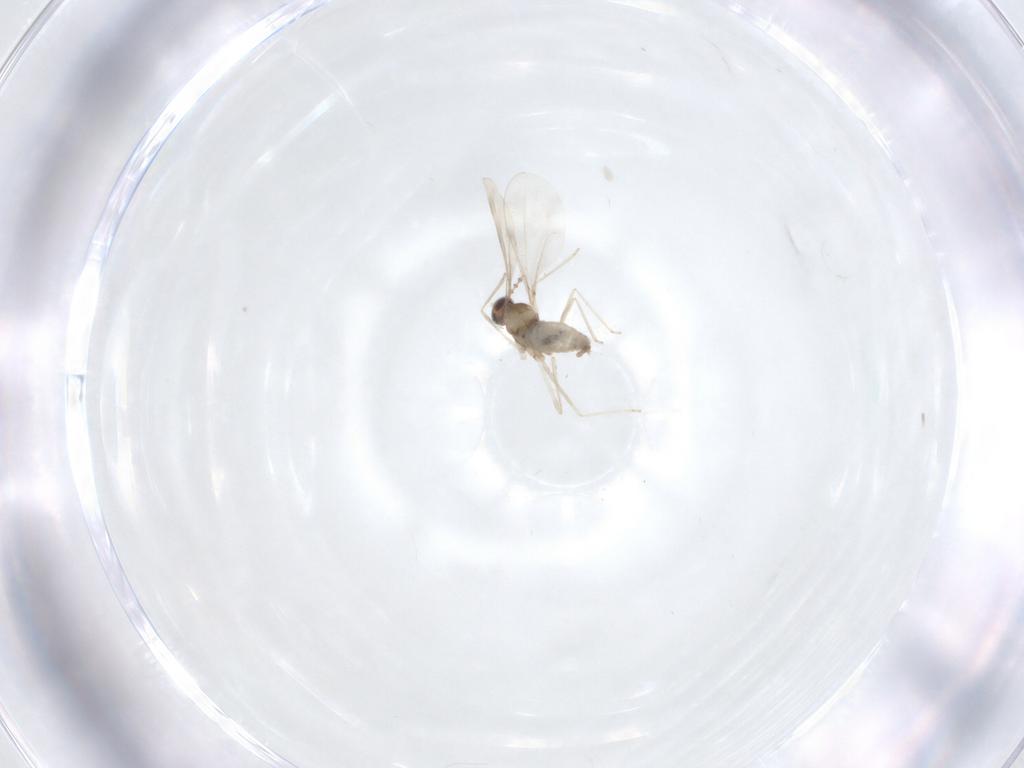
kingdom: Animalia
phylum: Arthropoda
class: Insecta
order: Diptera
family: Cecidomyiidae
